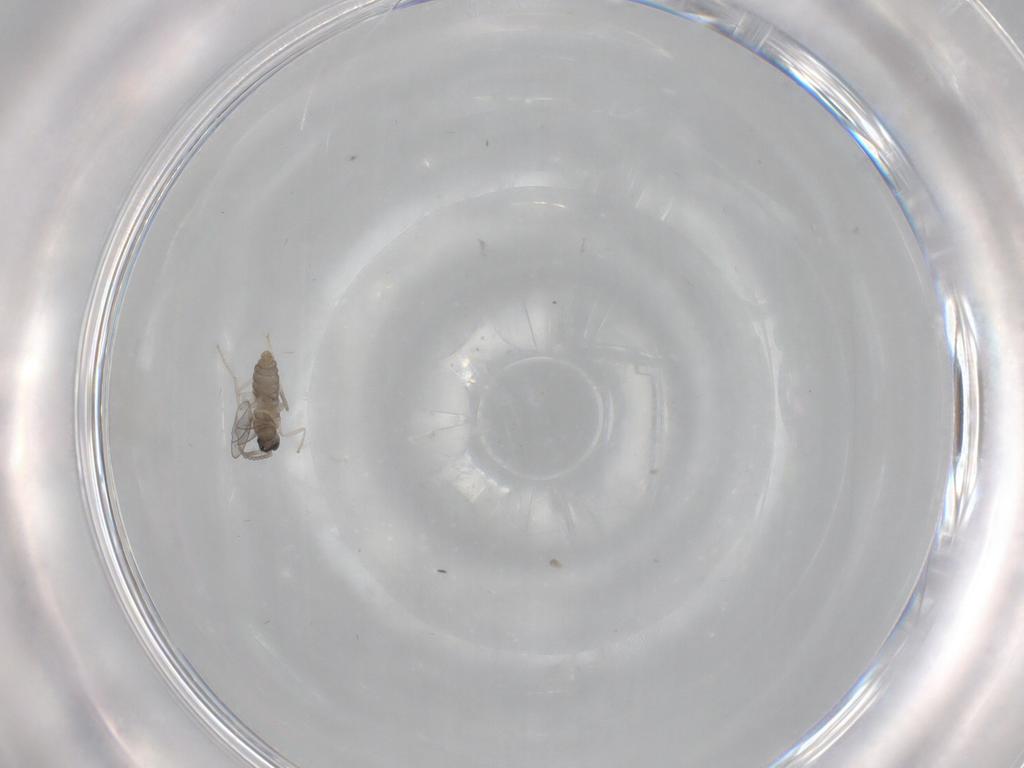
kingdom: Animalia
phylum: Arthropoda
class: Insecta
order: Diptera
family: Cecidomyiidae
